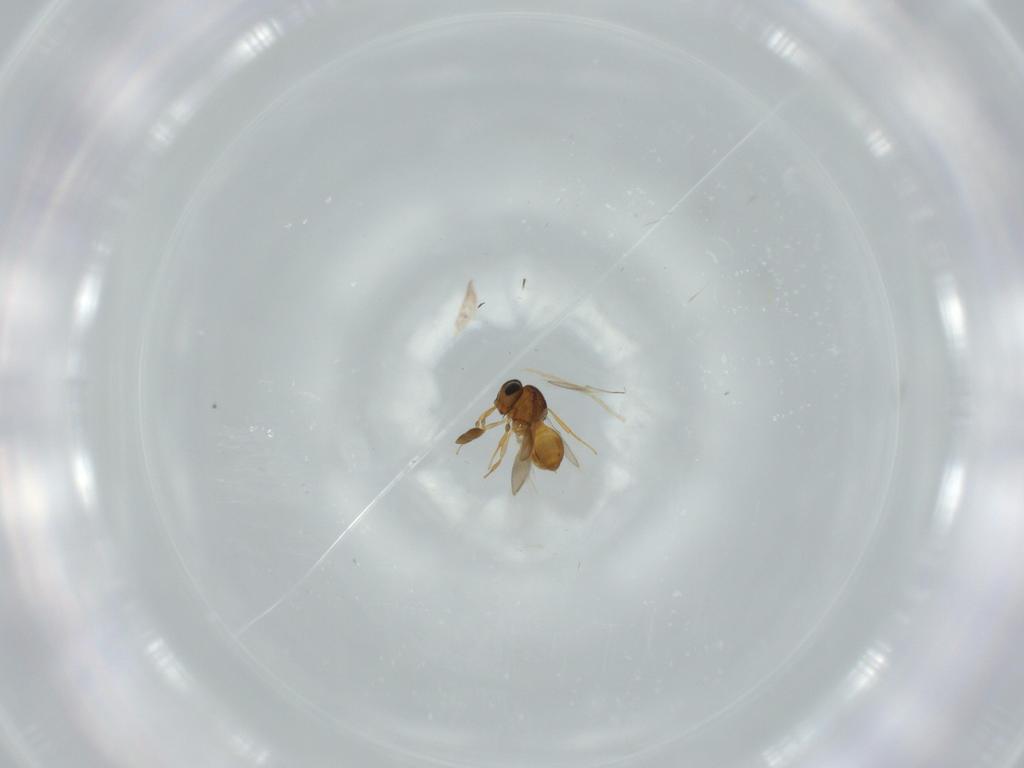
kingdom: Animalia
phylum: Arthropoda
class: Insecta
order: Hymenoptera
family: Scelionidae
